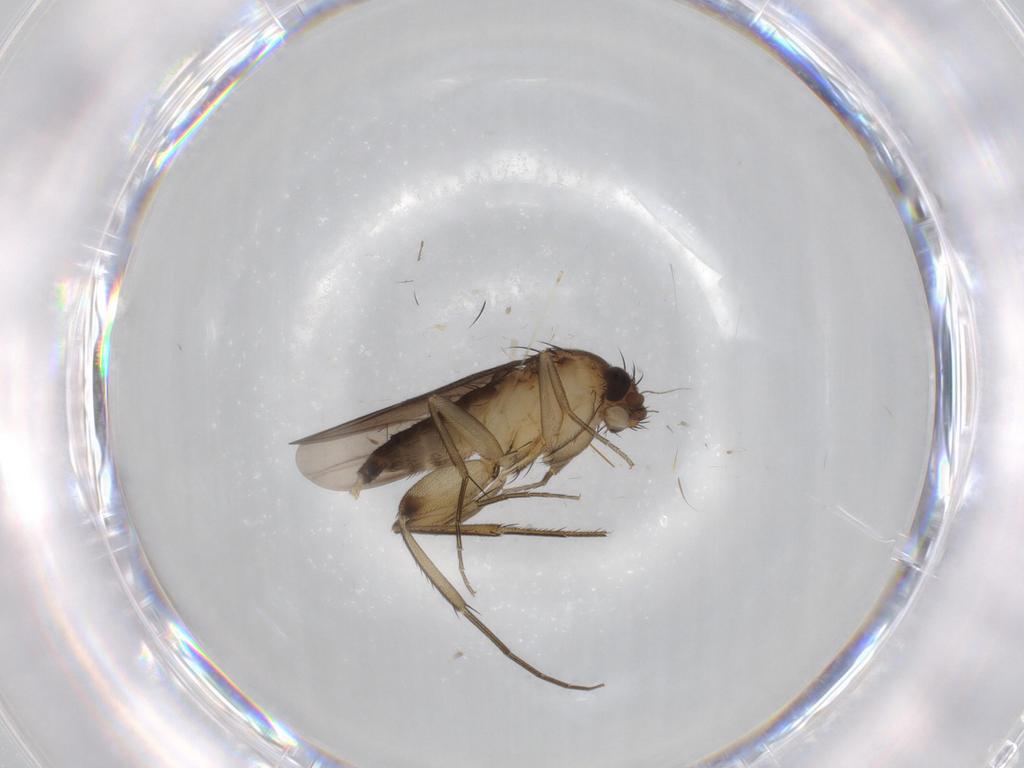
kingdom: Animalia
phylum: Arthropoda
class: Insecta
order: Diptera
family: Phoridae
